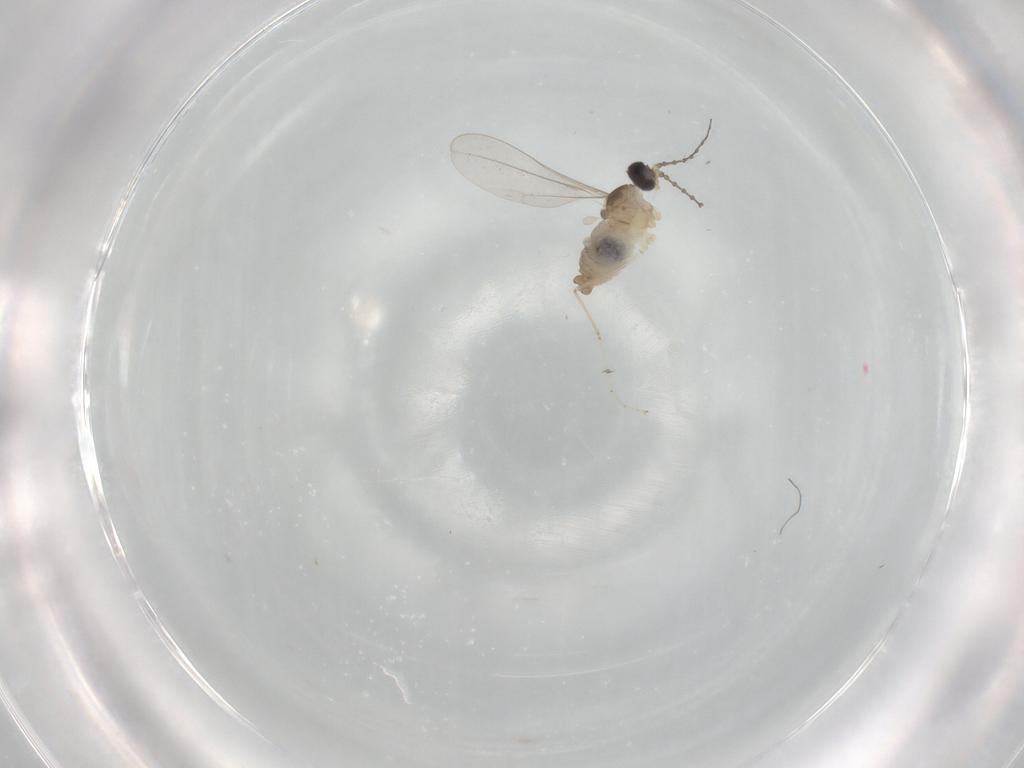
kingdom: Animalia
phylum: Arthropoda
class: Insecta
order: Diptera
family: Cecidomyiidae
